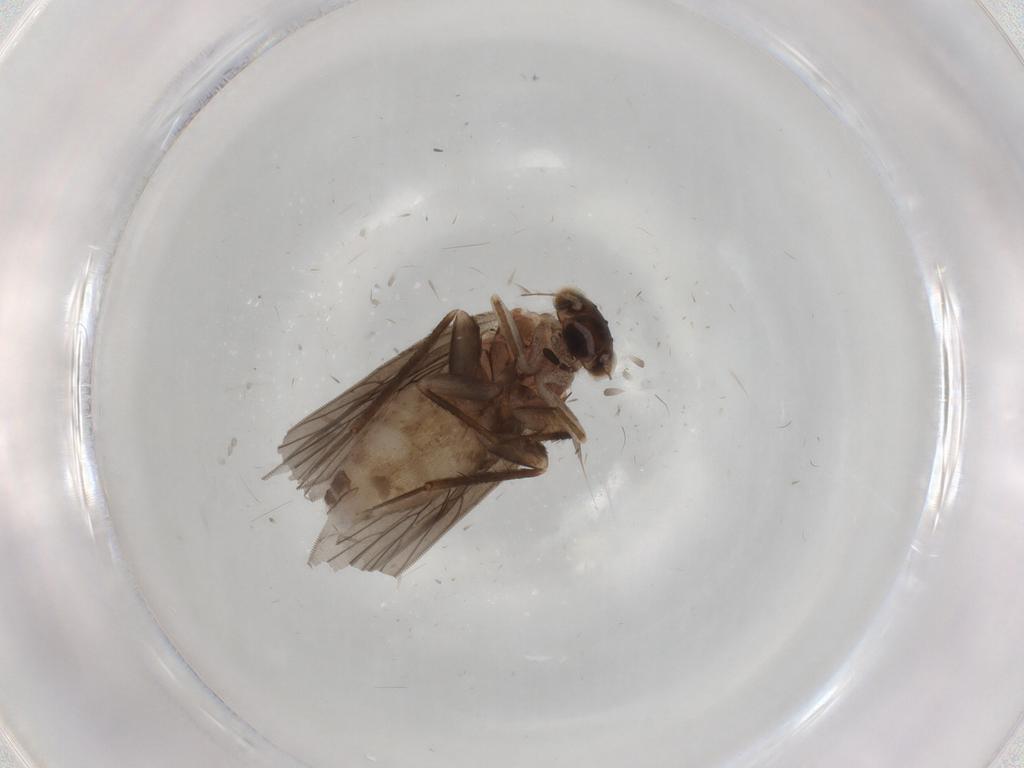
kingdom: Animalia
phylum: Arthropoda
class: Insecta
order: Psocodea
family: Lepidopsocidae
